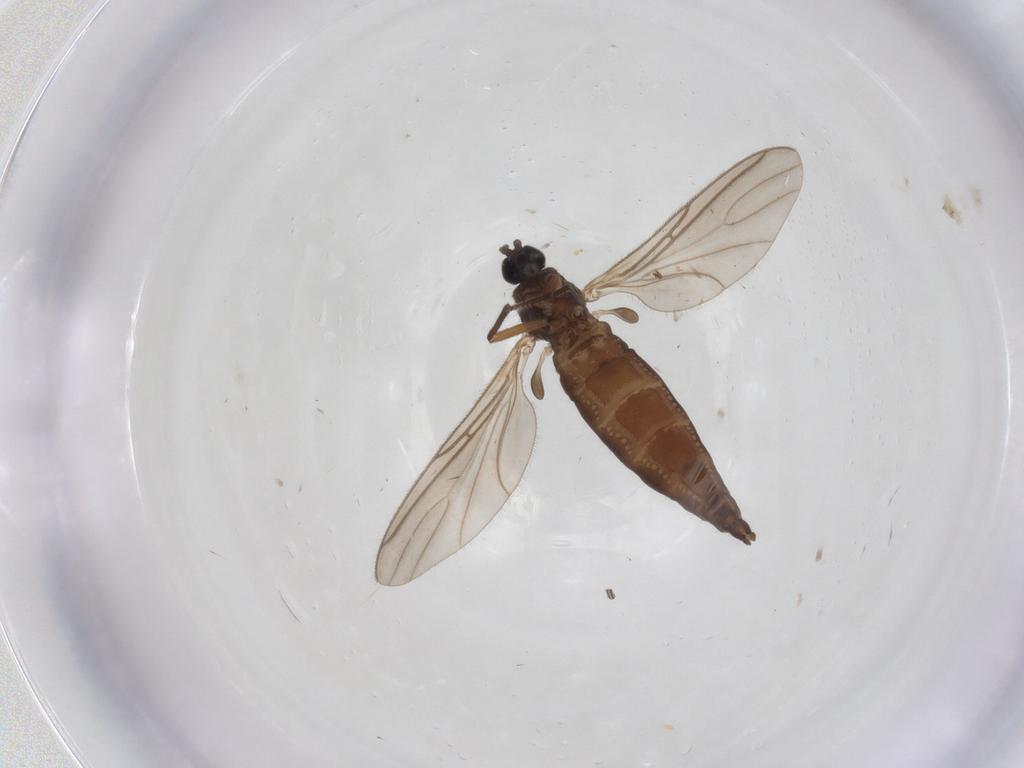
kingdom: Animalia
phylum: Arthropoda
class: Insecta
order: Diptera
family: Sciaridae
